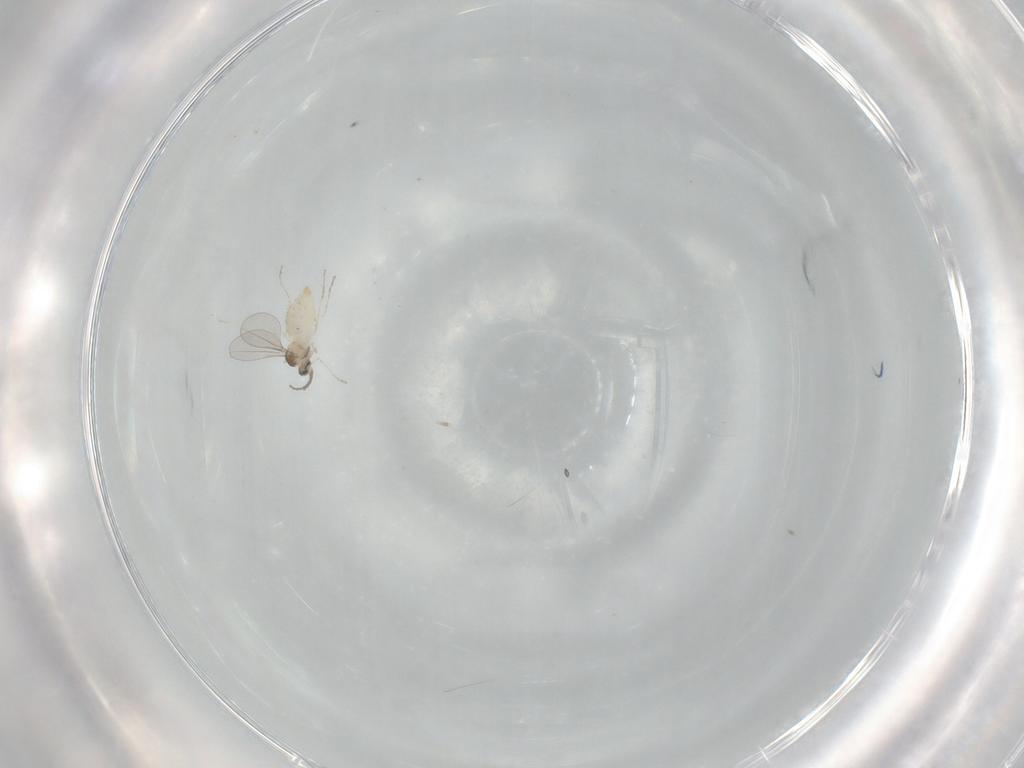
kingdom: Animalia
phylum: Arthropoda
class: Insecta
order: Diptera
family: Cecidomyiidae
